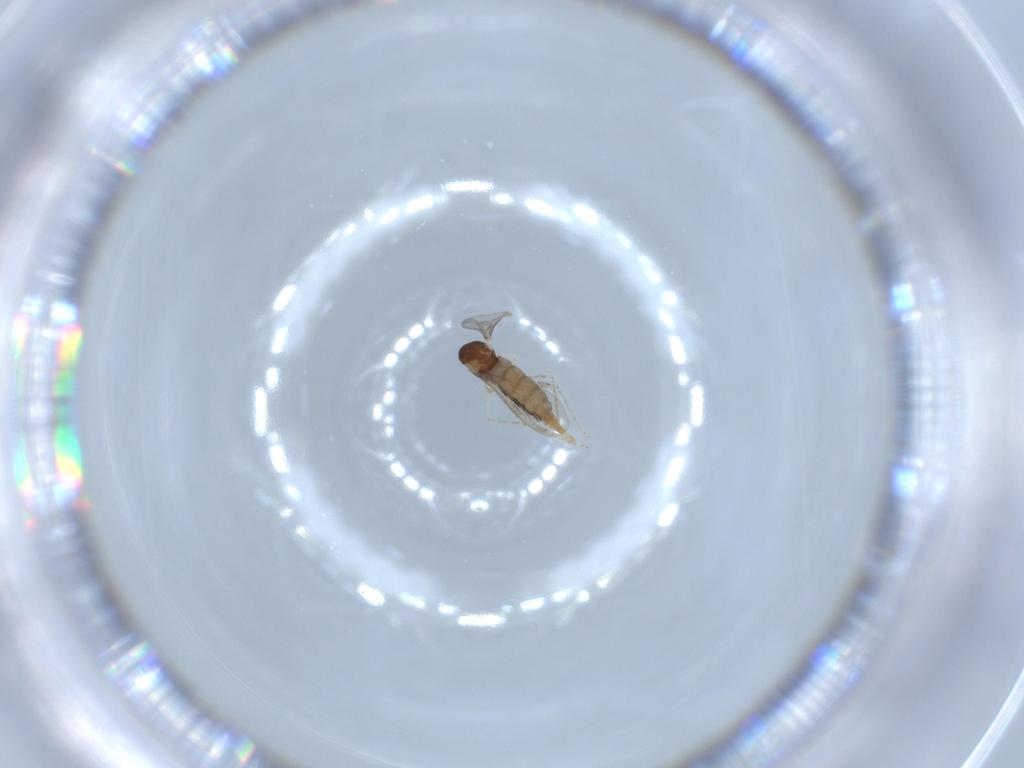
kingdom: Animalia
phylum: Arthropoda
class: Insecta
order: Diptera
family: Cecidomyiidae
